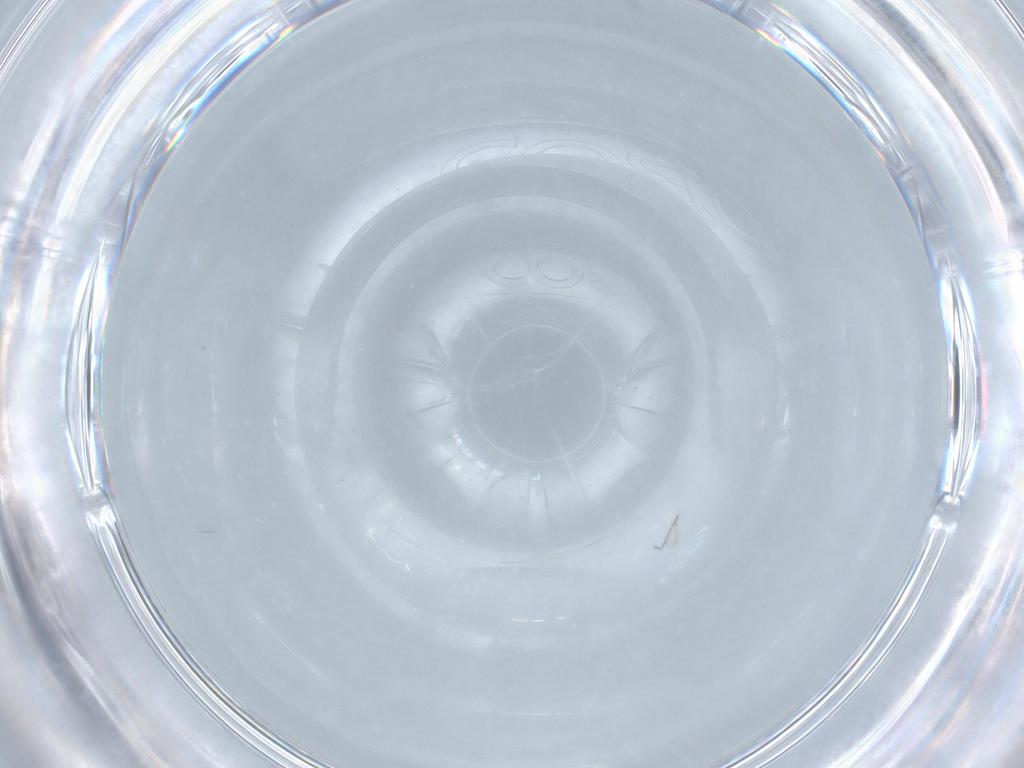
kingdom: Animalia
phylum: Arthropoda
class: Insecta
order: Diptera
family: Chironomidae
